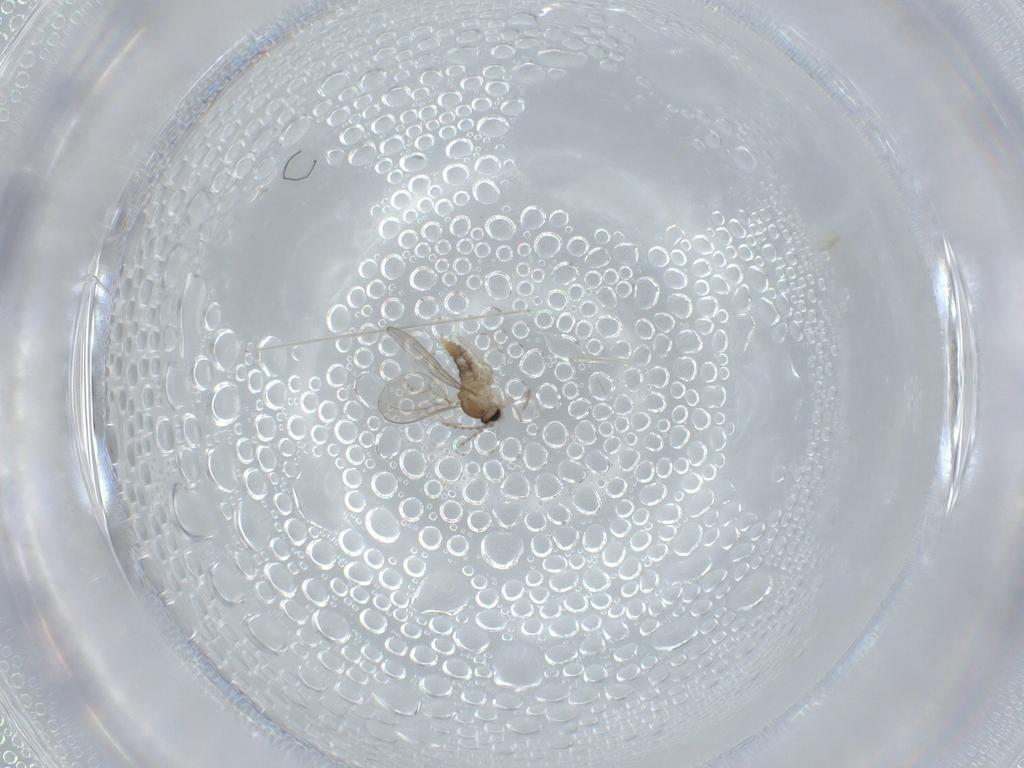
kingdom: Animalia
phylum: Arthropoda
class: Insecta
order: Diptera
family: Cecidomyiidae
